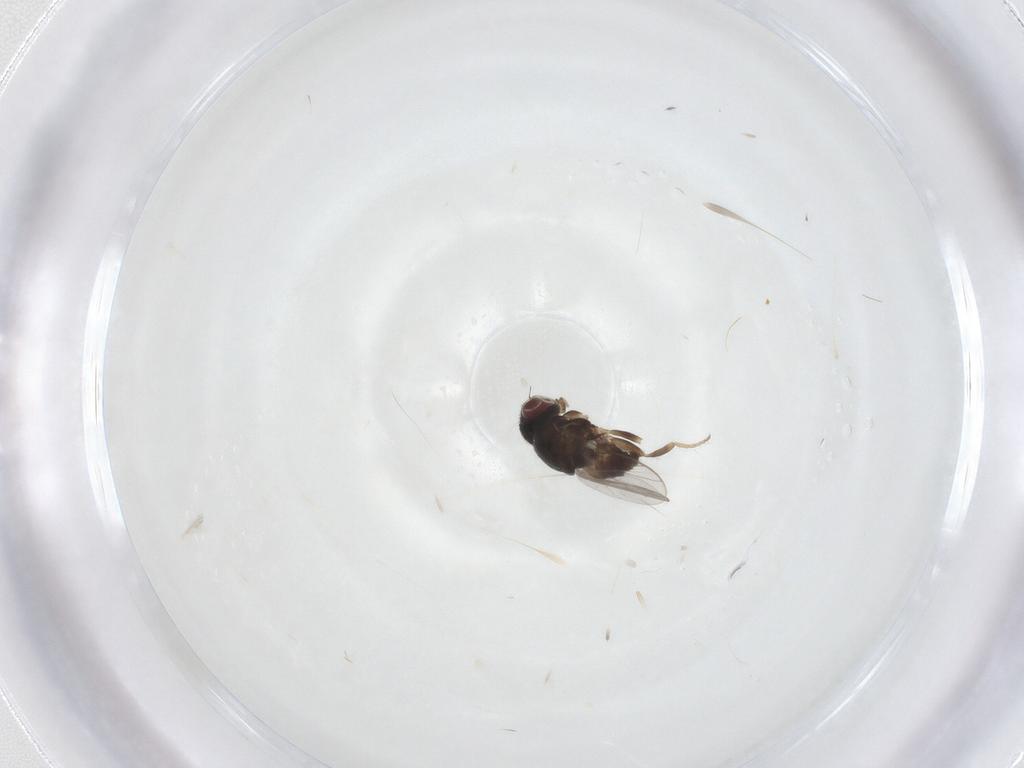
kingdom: Animalia
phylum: Arthropoda
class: Insecta
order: Diptera
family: Chloropidae
